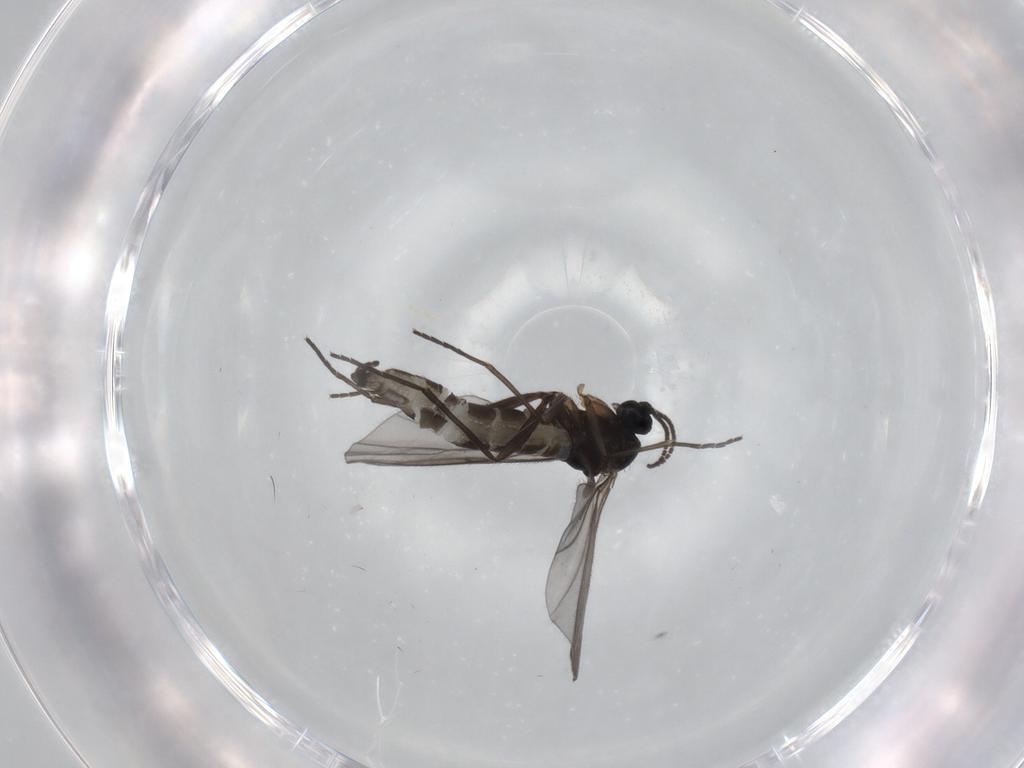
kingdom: Animalia
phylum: Arthropoda
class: Insecta
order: Diptera
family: Sciaridae
